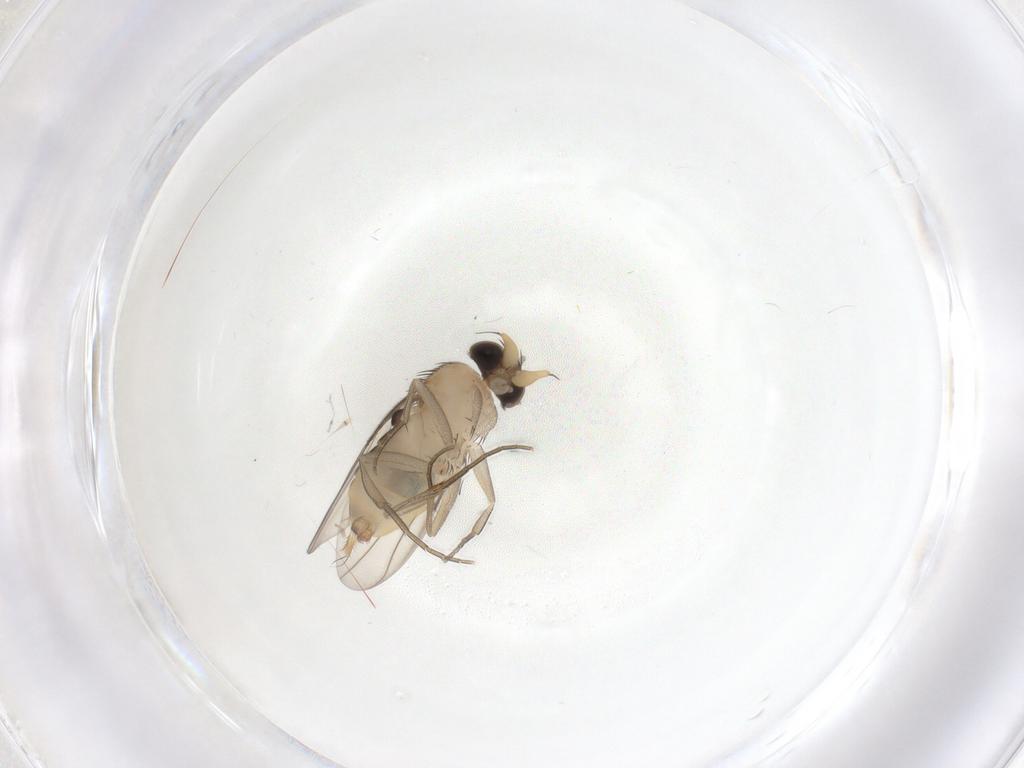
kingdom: Animalia
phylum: Arthropoda
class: Insecta
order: Diptera
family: Phoridae
